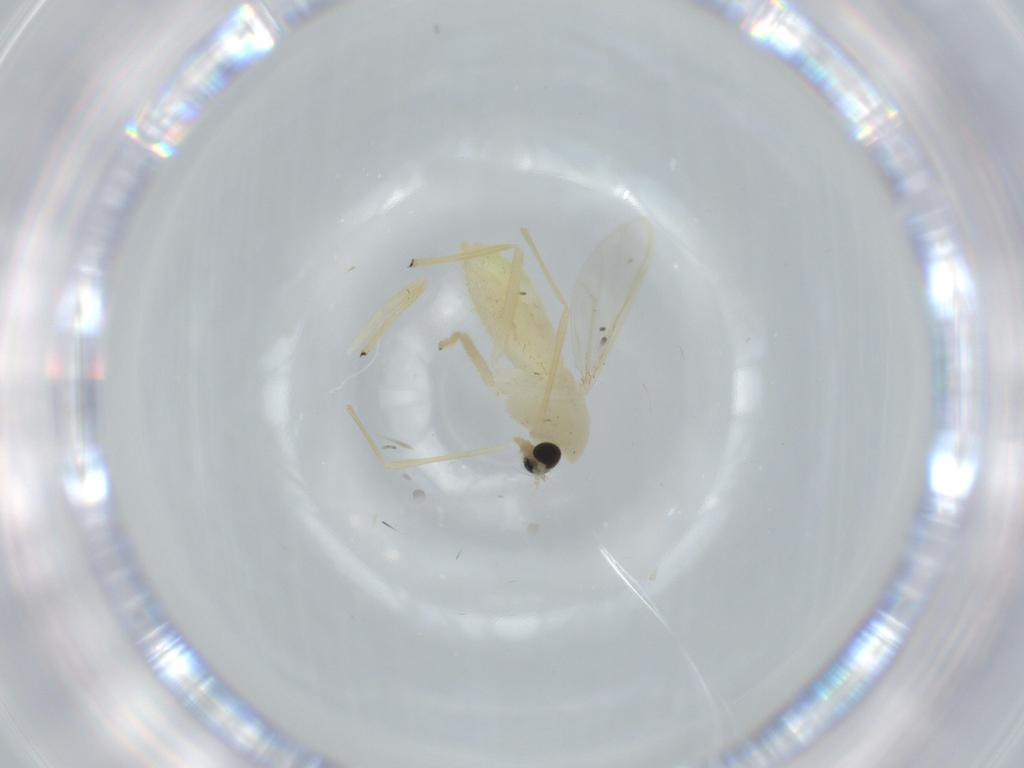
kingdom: Animalia
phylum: Arthropoda
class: Insecta
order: Diptera
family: Chironomidae
